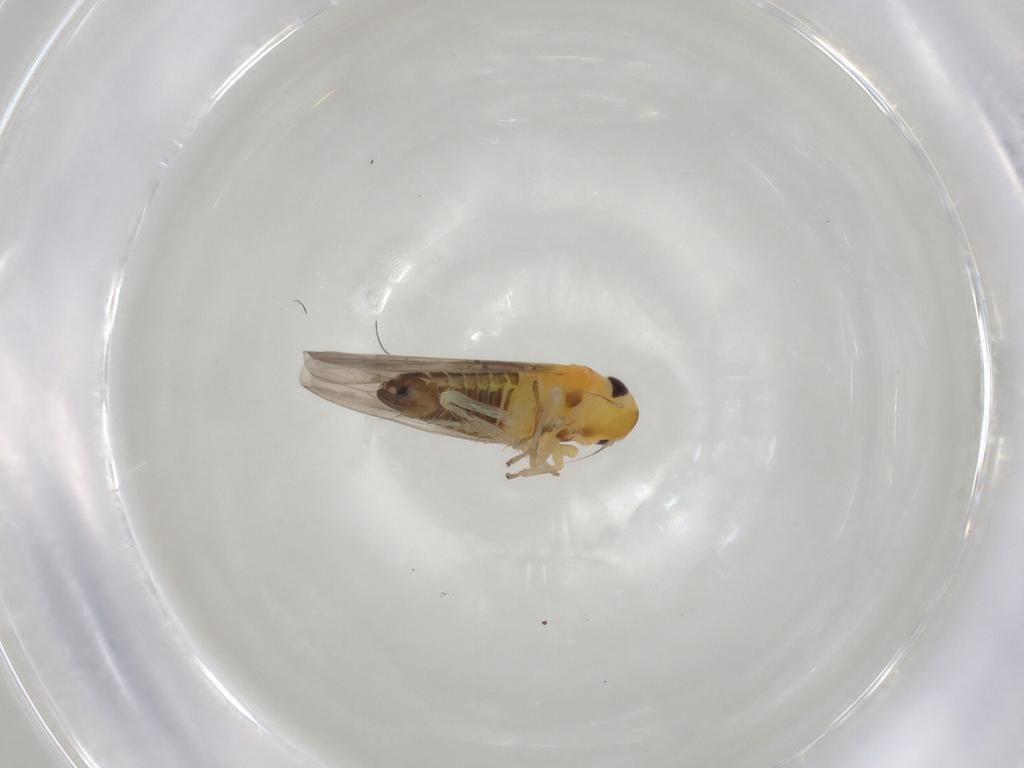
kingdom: Animalia
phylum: Arthropoda
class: Insecta
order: Hemiptera
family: Cicadellidae
